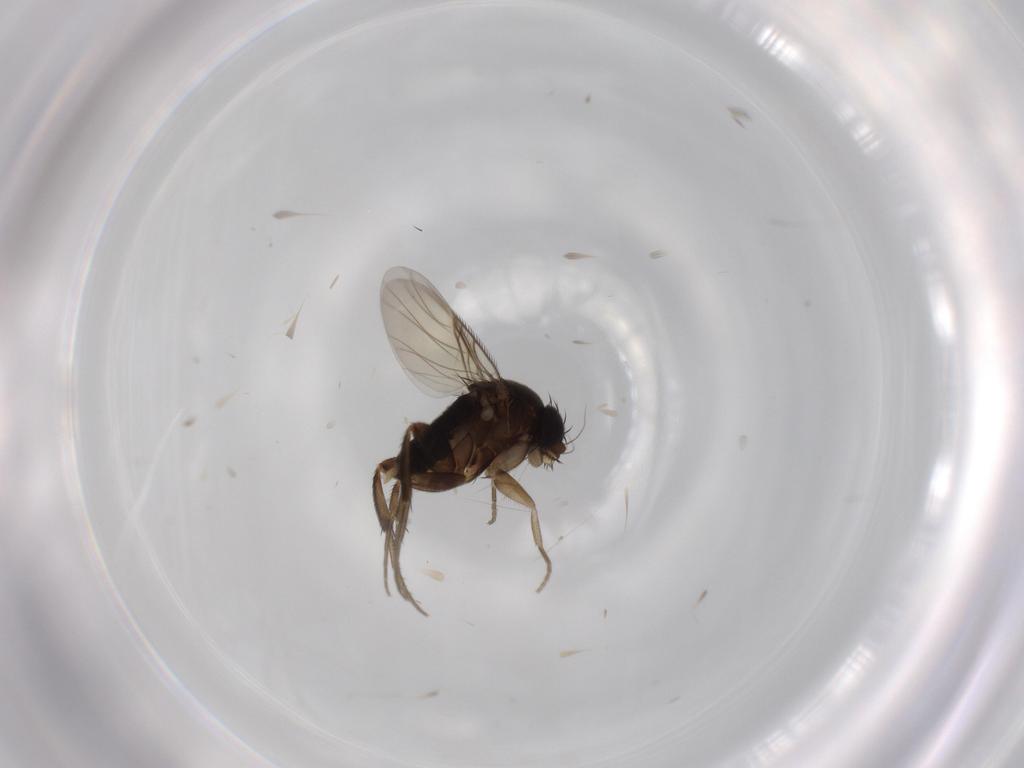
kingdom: Animalia
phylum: Arthropoda
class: Insecta
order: Diptera
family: Phoridae
